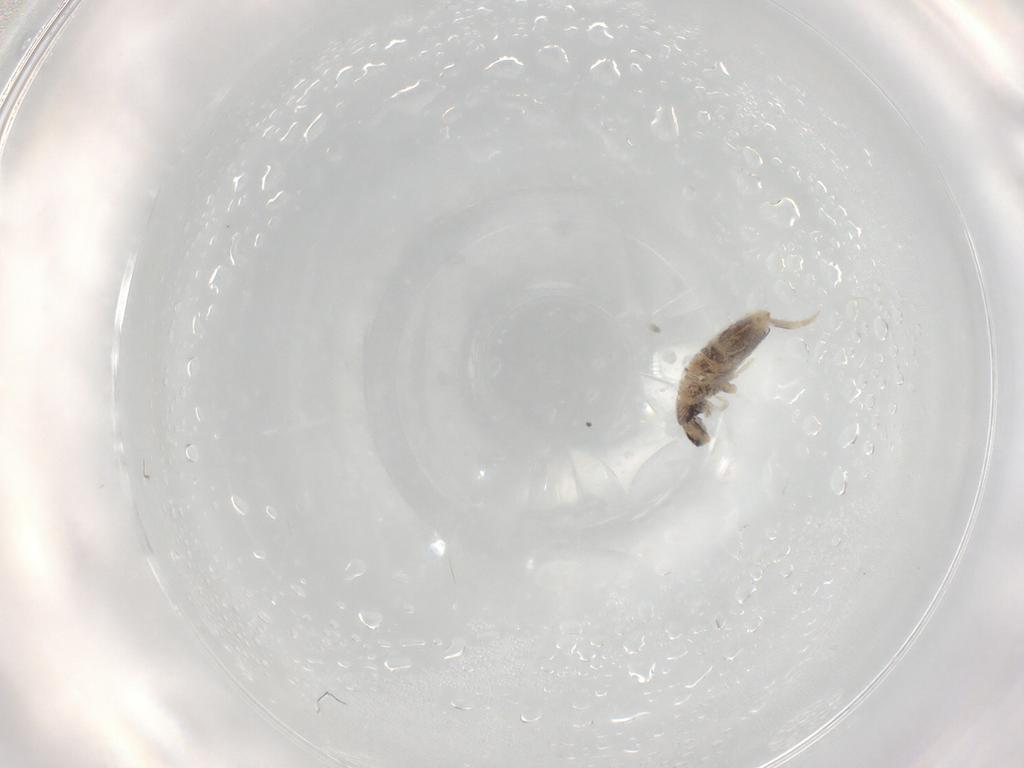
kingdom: Animalia
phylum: Arthropoda
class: Collembola
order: Entomobryomorpha
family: Entomobryidae
